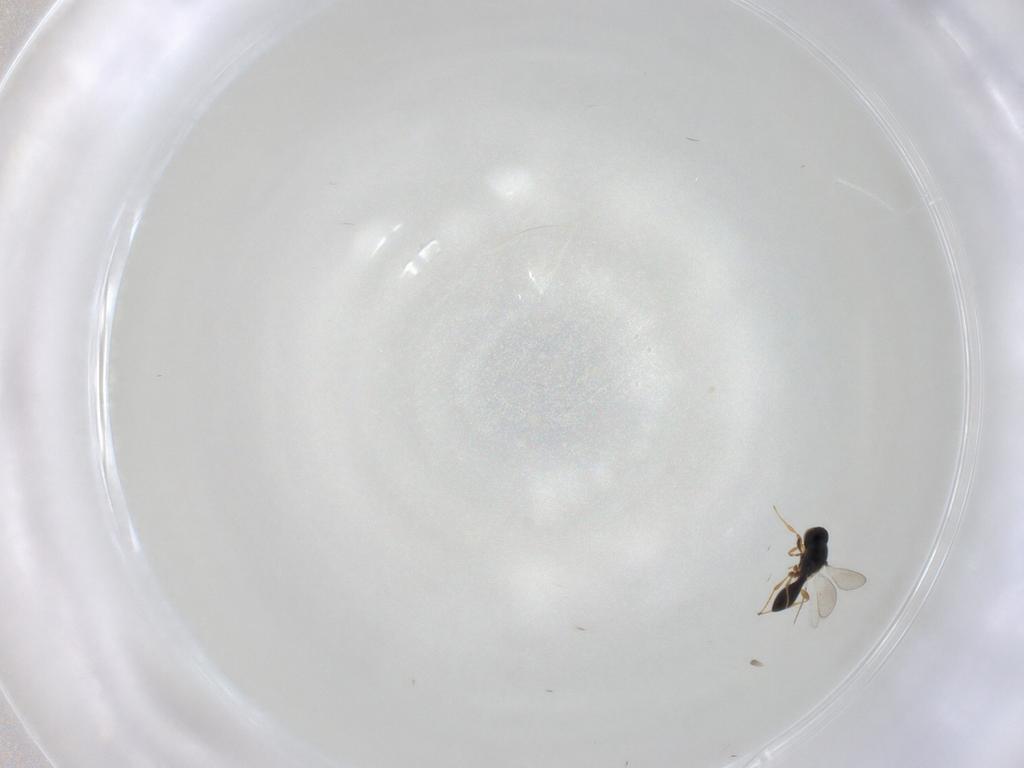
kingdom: Animalia
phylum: Arthropoda
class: Insecta
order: Hymenoptera
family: Platygastridae
